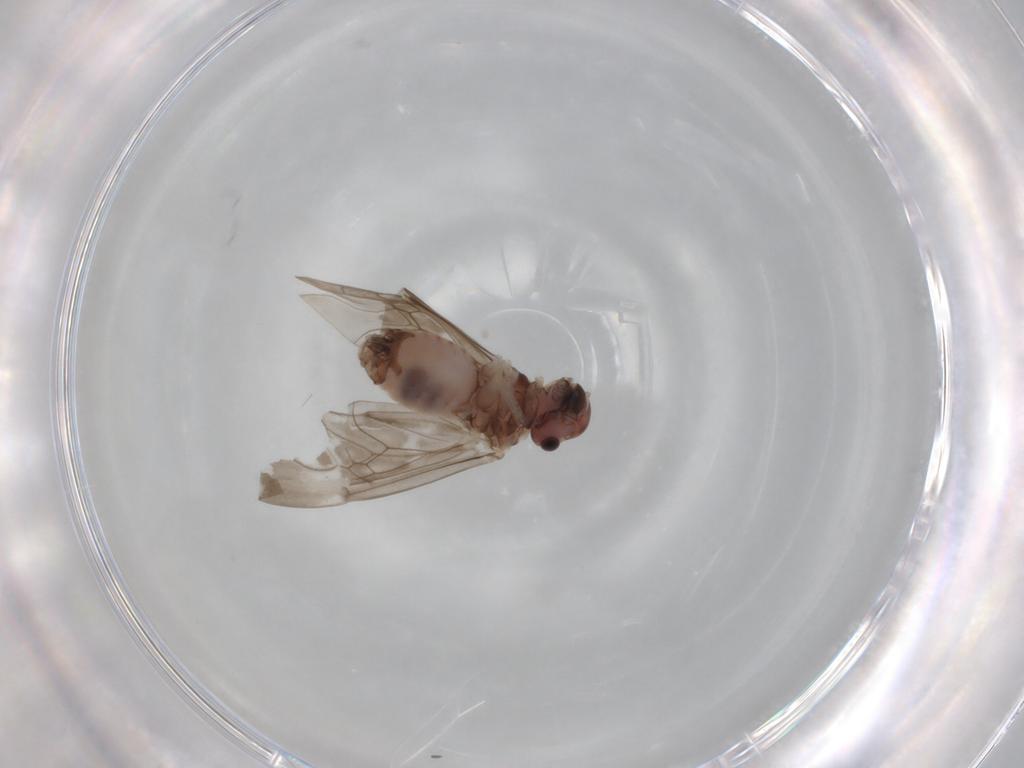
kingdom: Animalia
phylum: Arthropoda
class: Insecta
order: Psocodea
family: Peripsocidae
